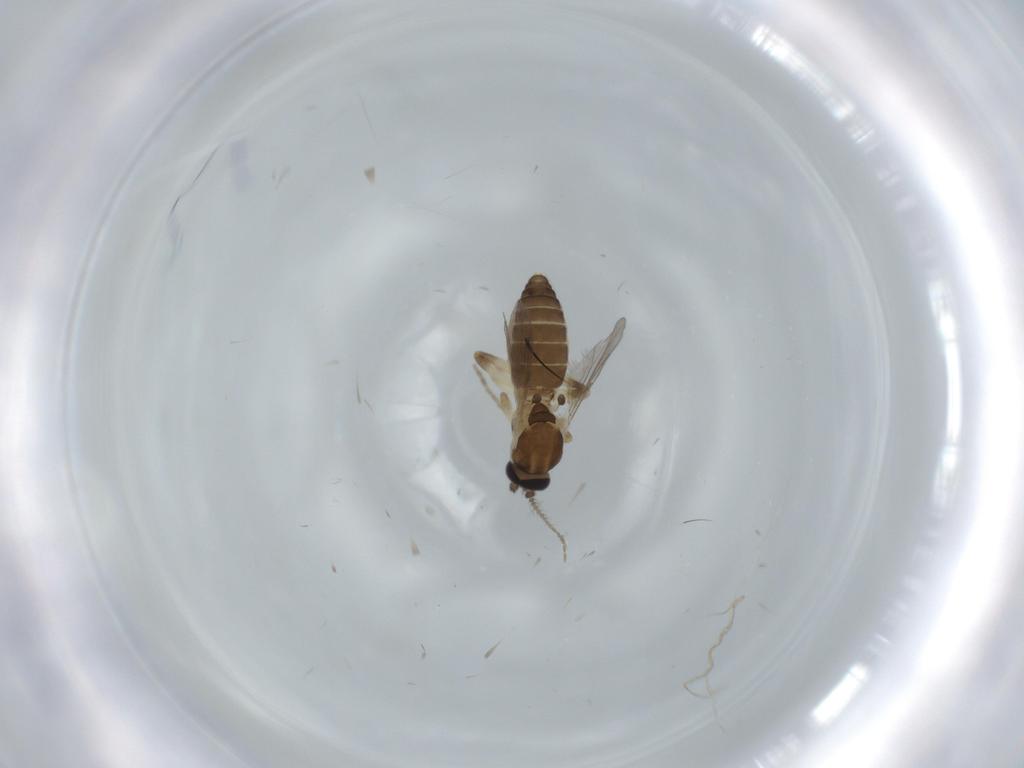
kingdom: Animalia
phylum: Arthropoda
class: Insecta
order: Diptera
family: Ceratopogonidae
